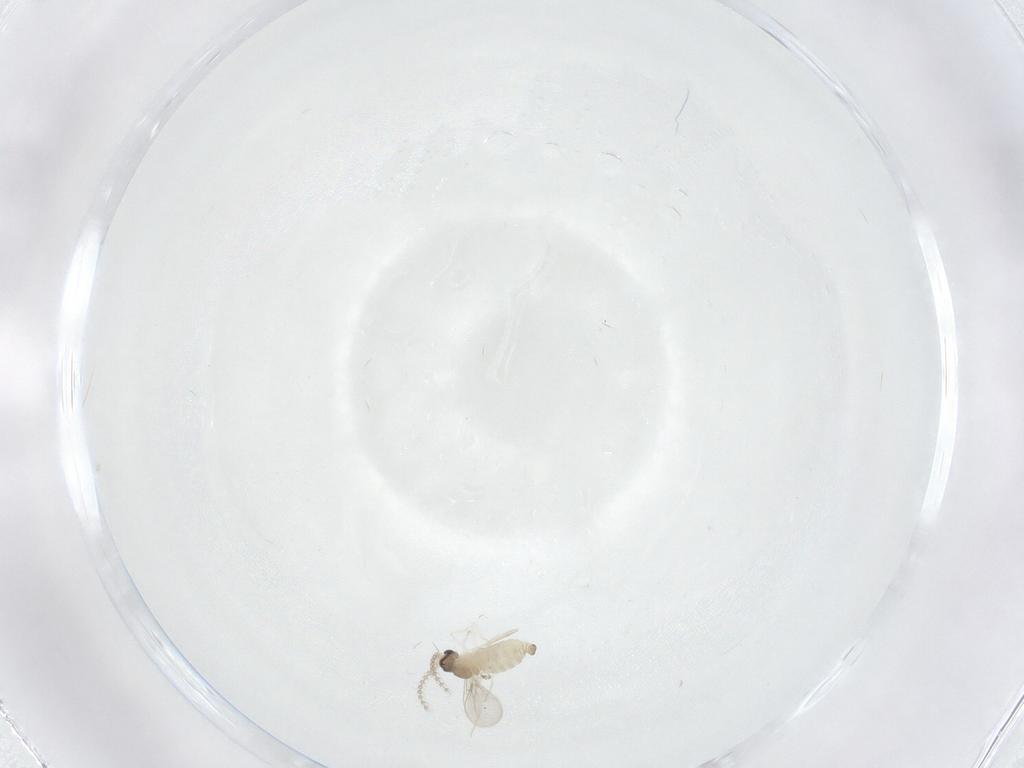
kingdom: Animalia
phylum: Arthropoda
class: Insecta
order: Diptera
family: Cecidomyiidae
